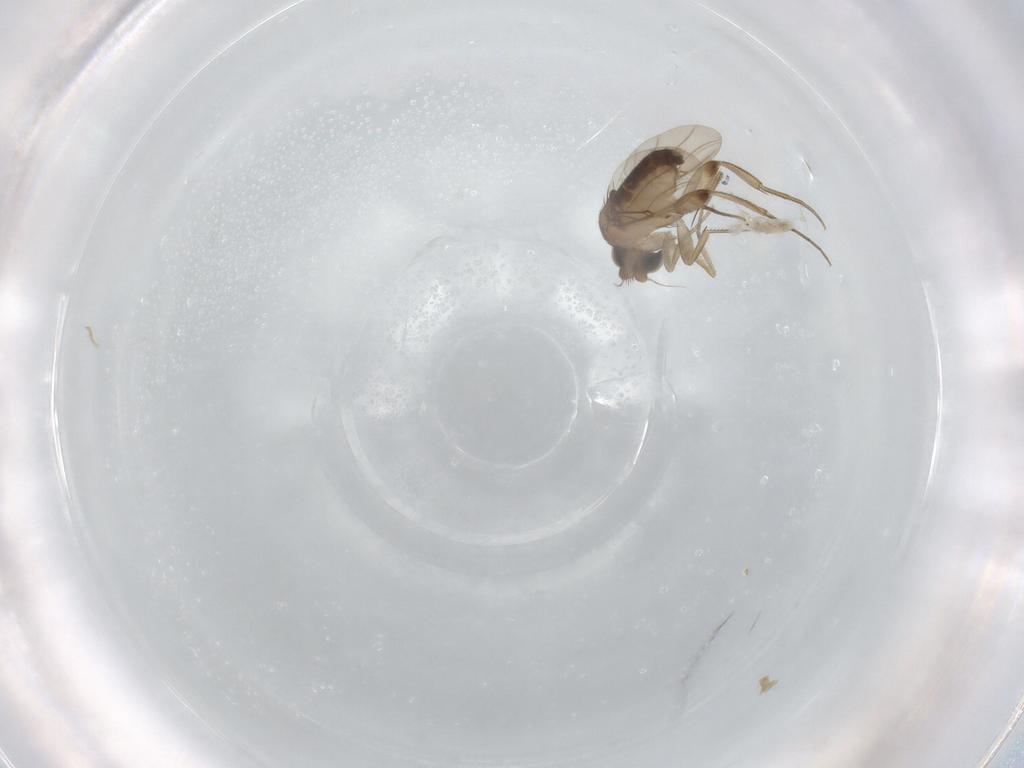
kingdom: Animalia
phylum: Arthropoda
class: Insecta
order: Diptera
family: Phoridae
